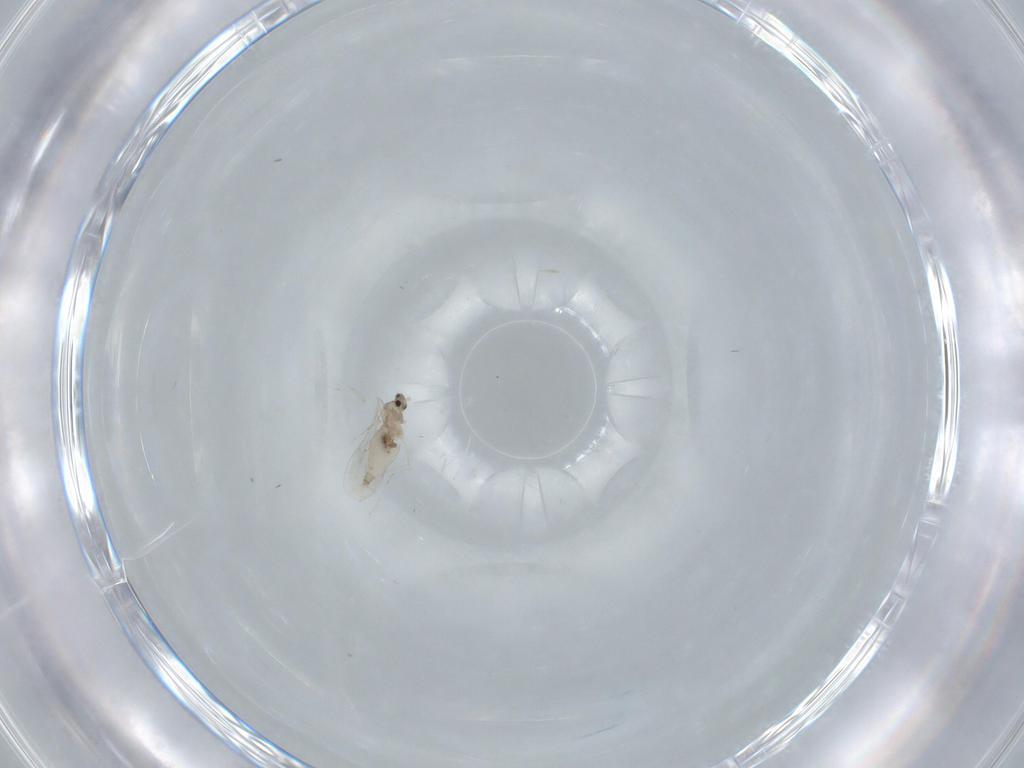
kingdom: Animalia
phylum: Arthropoda
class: Insecta
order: Diptera
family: Cecidomyiidae
